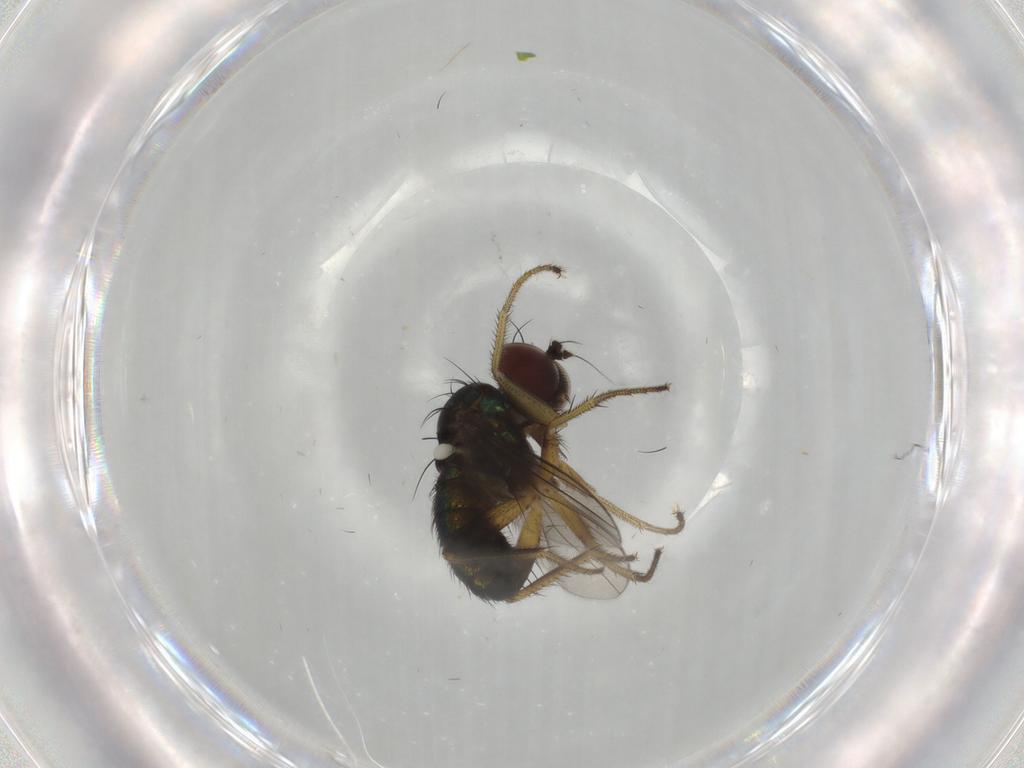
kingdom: Animalia
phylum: Arthropoda
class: Insecta
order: Diptera
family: Dolichopodidae
